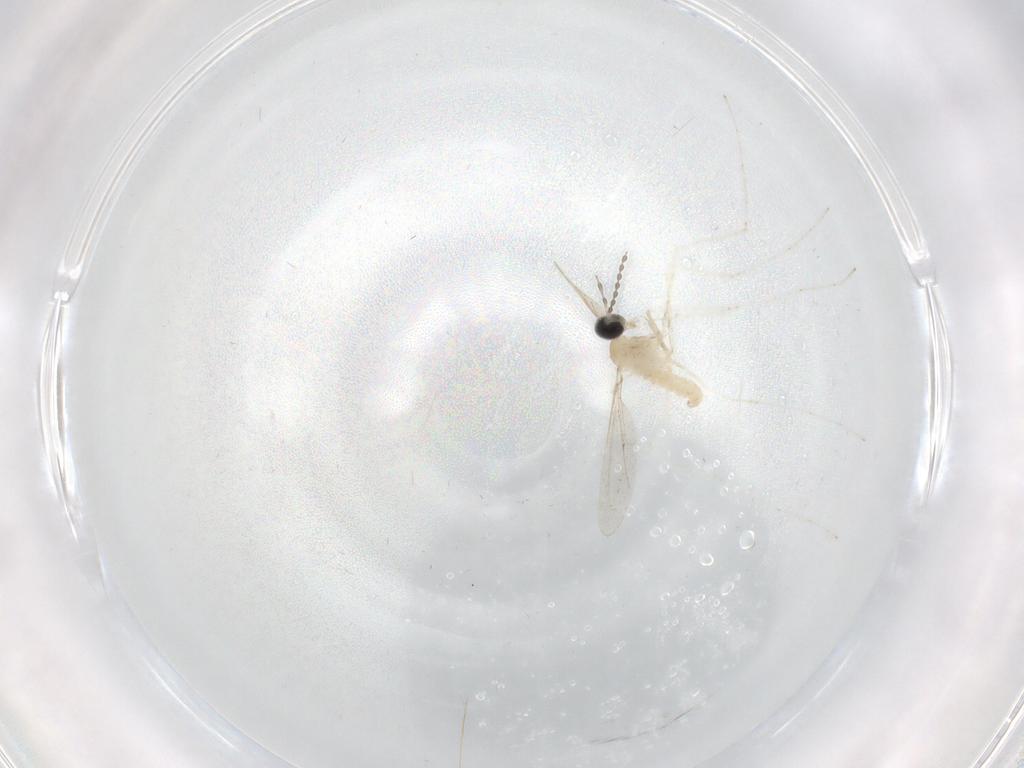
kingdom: Animalia
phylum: Arthropoda
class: Insecta
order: Diptera
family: Cecidomyiidae
